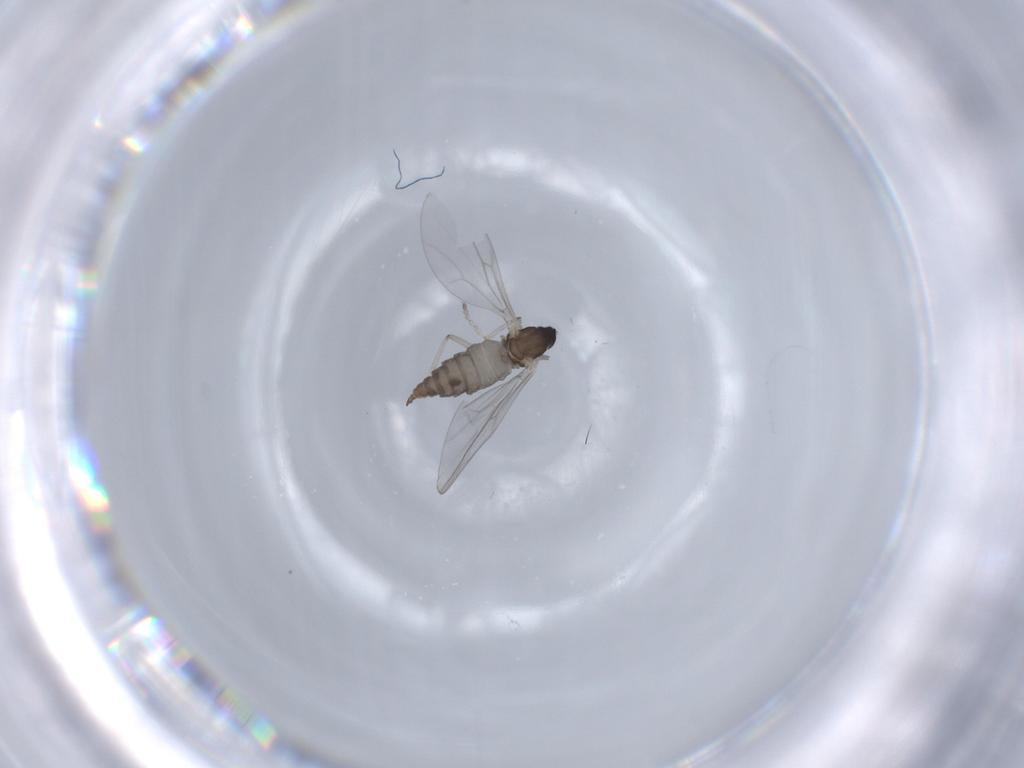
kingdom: Animalia
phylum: Arthropoda
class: Insecta
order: Diptera
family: Cecidomyiidae
